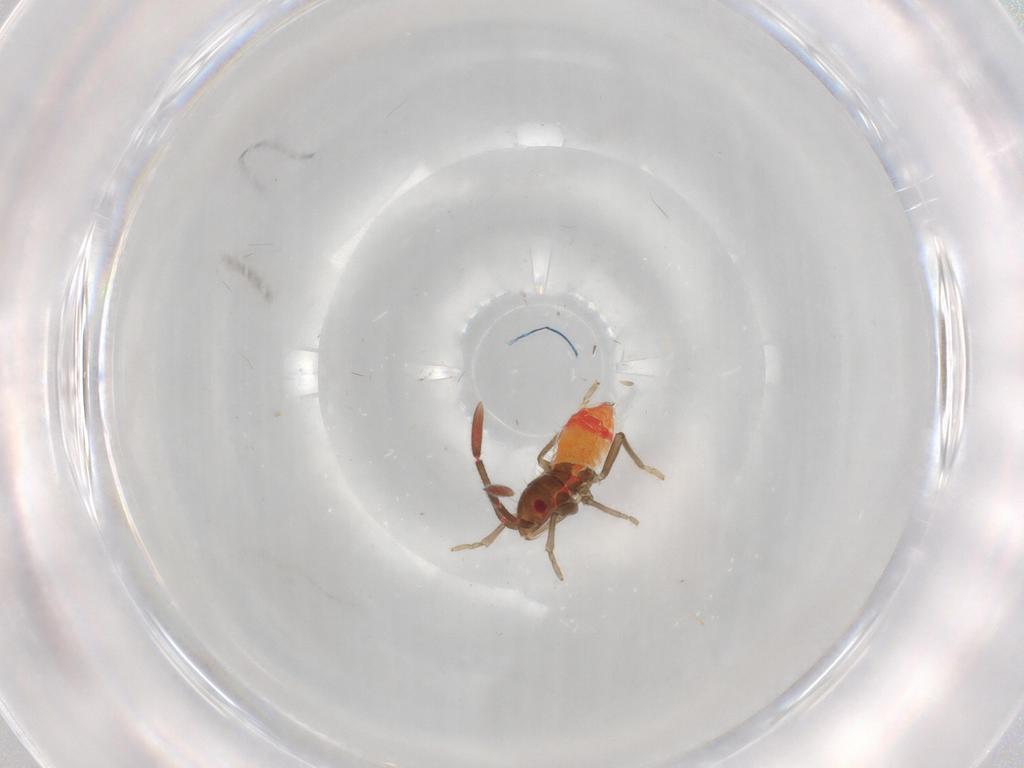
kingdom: Animalia
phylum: Arthropoda
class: Insecta
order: Hemiptera
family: Rhyparochromidae
